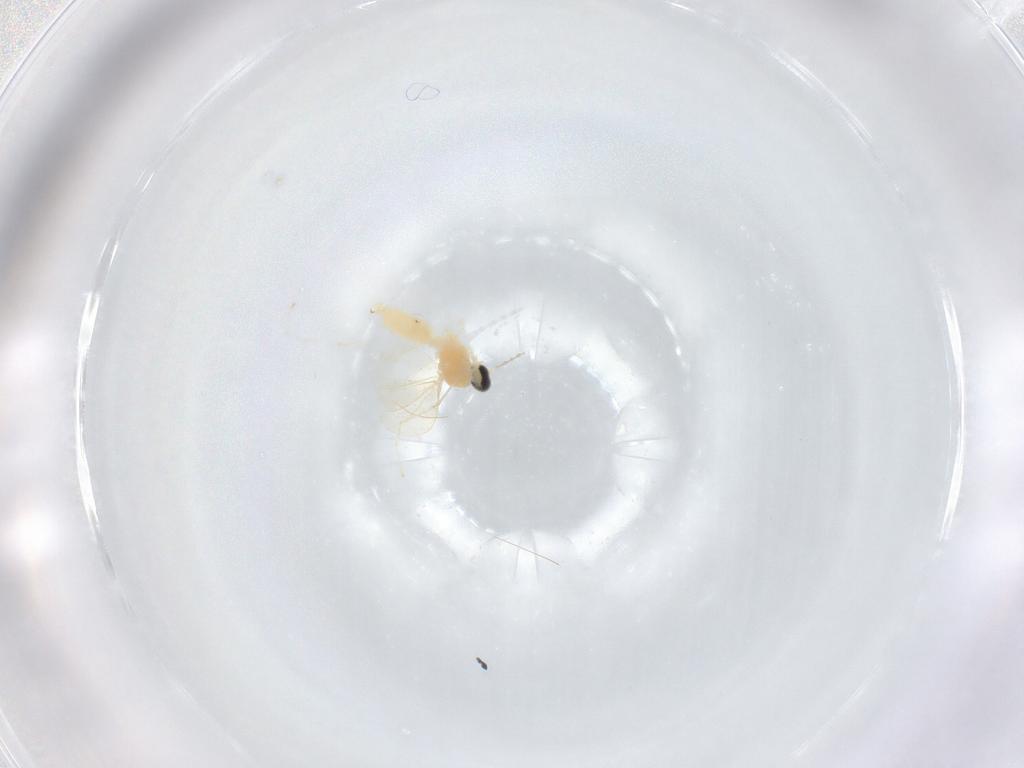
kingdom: Animalia
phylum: Arthropoda
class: Insecta
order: Diptera
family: Cecidomyiidae
